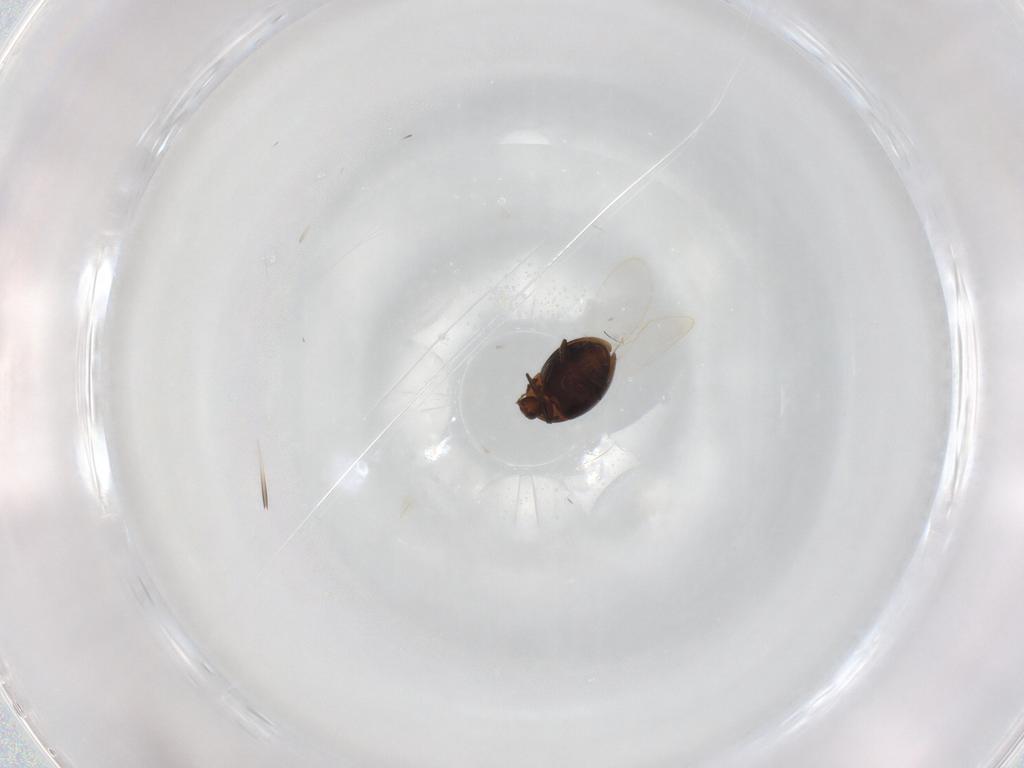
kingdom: Animalia
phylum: Arthropoda
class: Insecta
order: Coleoptera
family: Corylophidae
